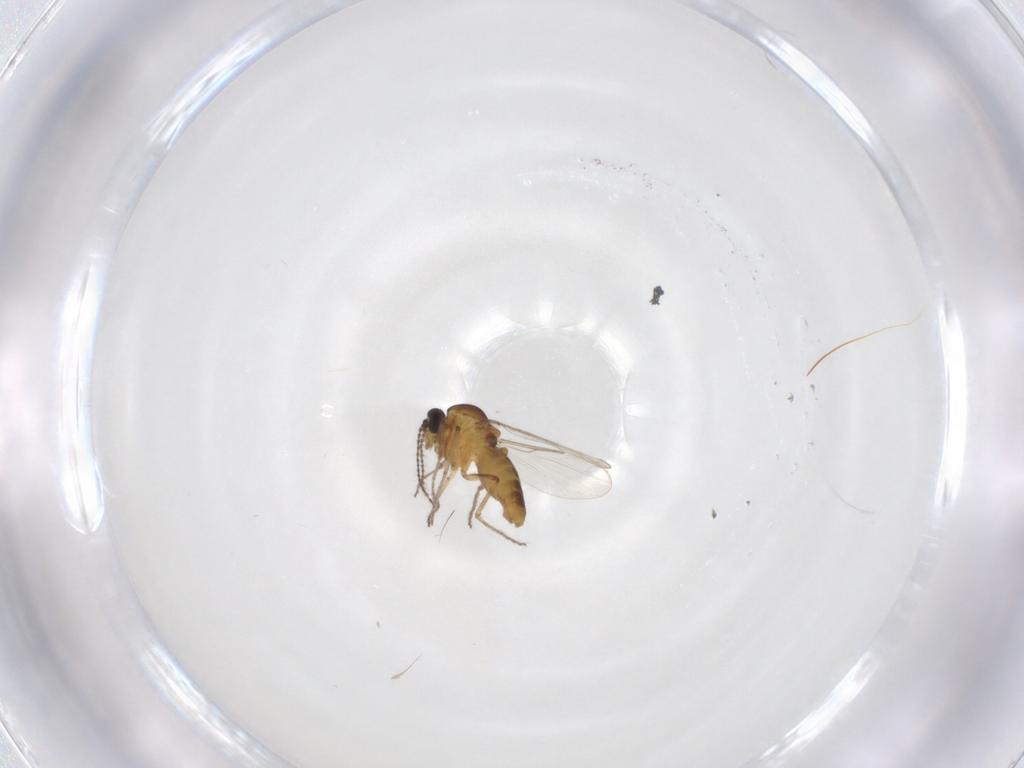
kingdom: Animalia
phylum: Arthropoda
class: Insecta
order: Diptera
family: Ceratopogonidae
